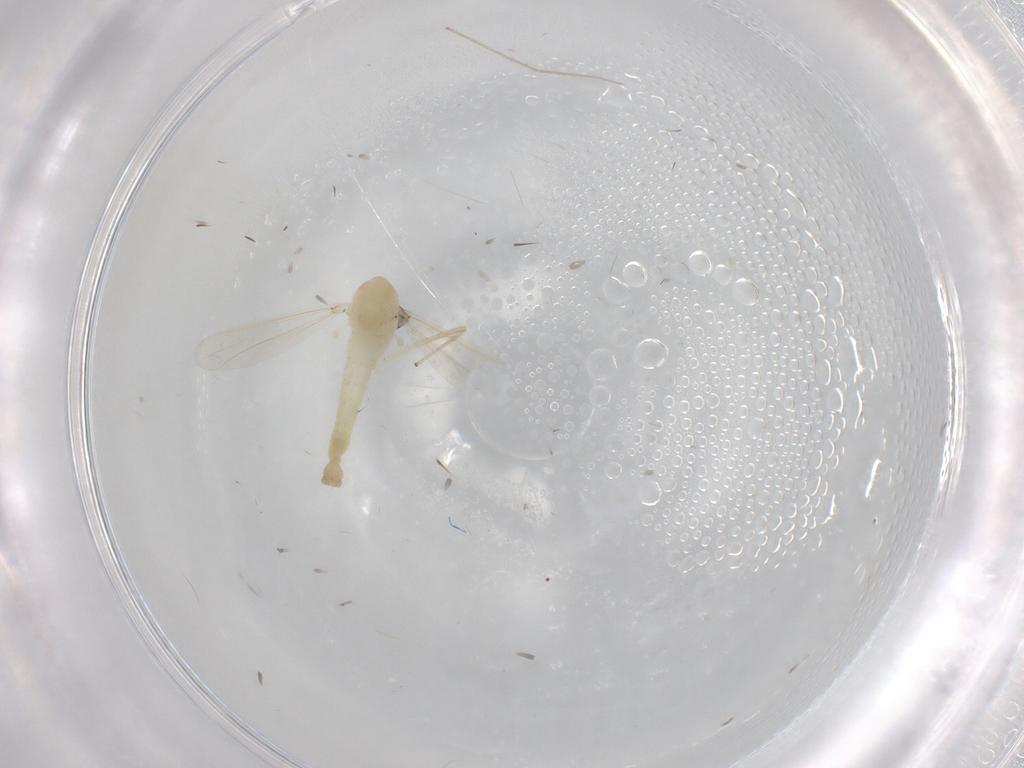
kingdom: Animalia
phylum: Arthropoda
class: Insecta
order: Diptera
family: Chironomidae
